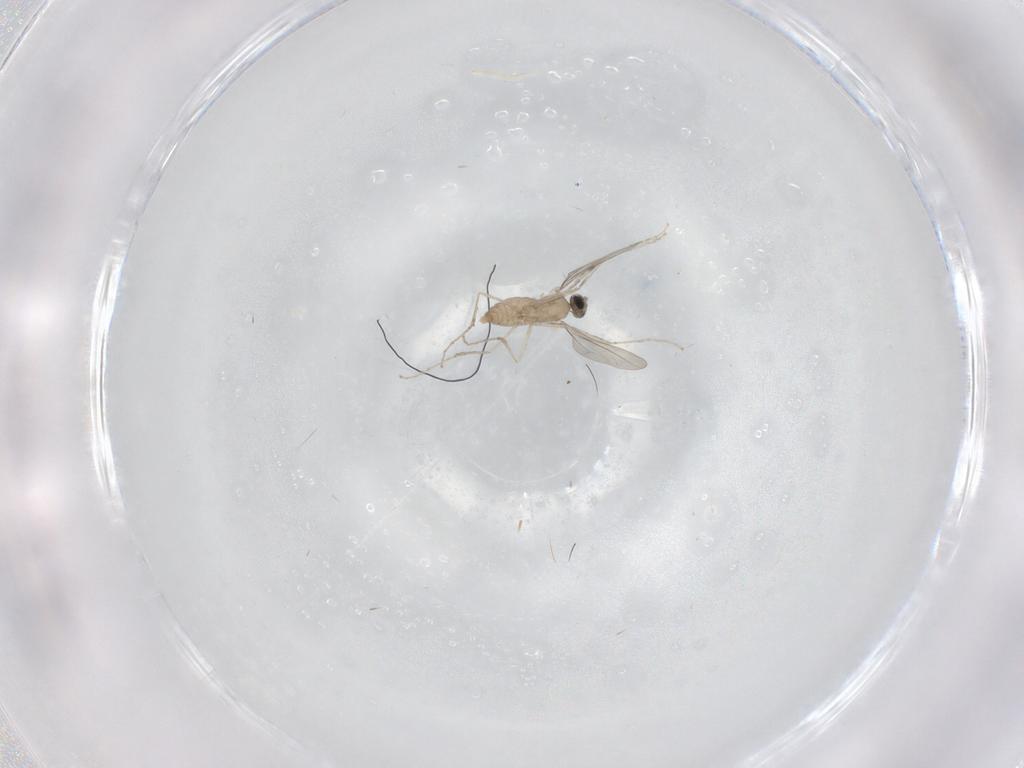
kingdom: Animalia
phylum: Arthropoda
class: Insecta
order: Diptera
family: Cecidomyiidae
